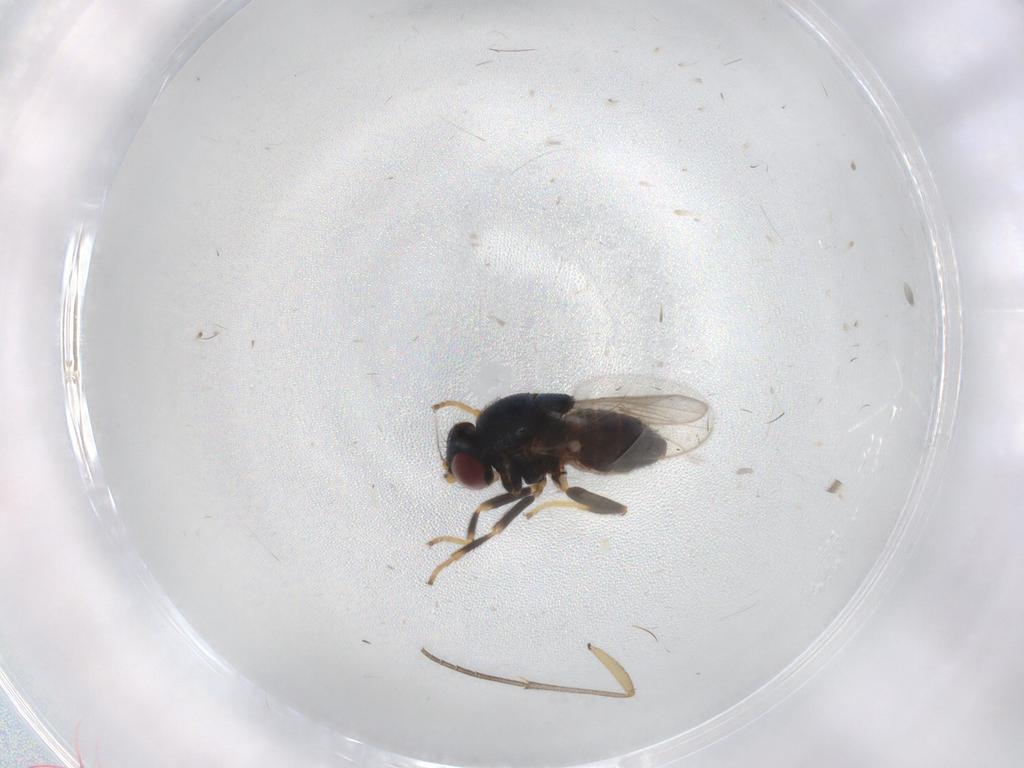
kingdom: Animalia
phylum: Arthropoda
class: Insecta
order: Diptera
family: Chloropidae
